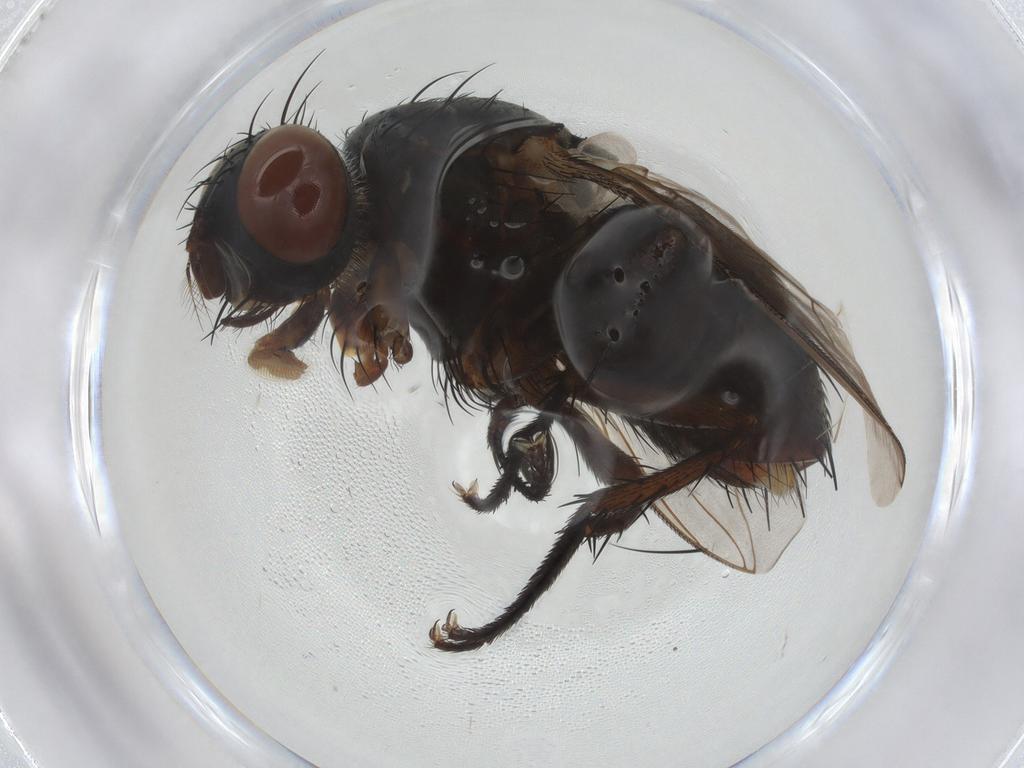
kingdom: Animalia
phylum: Arthropoda
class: Insecta
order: Diptera
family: Sarcophagidae
